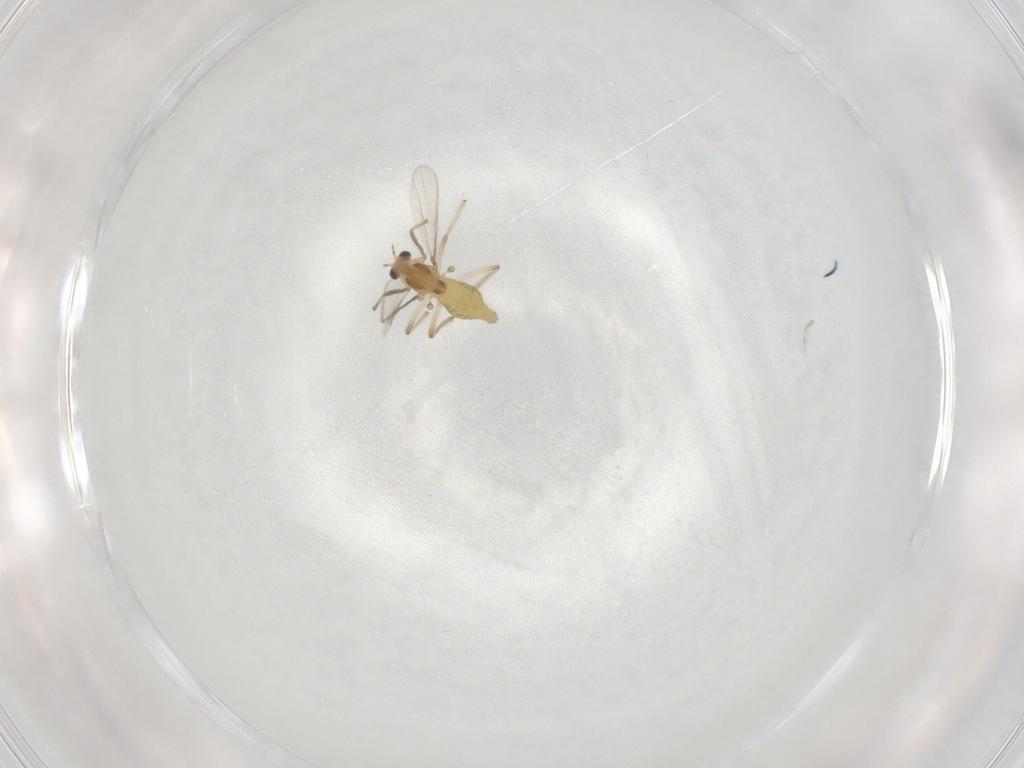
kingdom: Animalia
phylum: Arthropoda
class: Insecta
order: Diptera
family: Chironomidae
